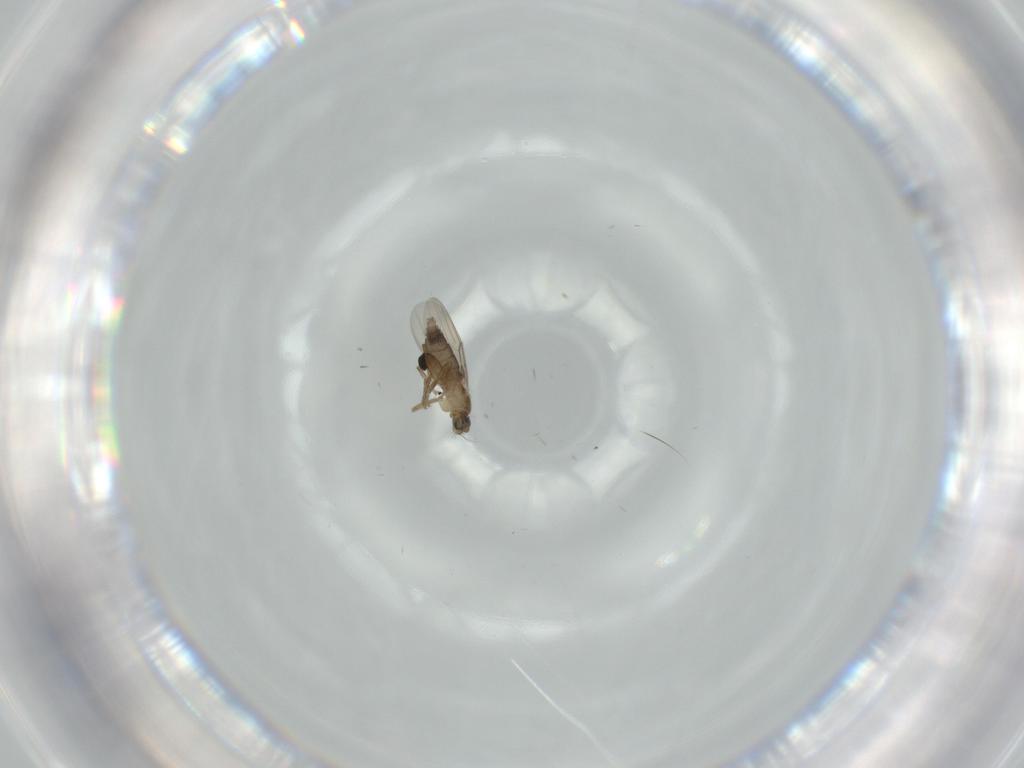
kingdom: Animalia
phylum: Arthropoda
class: Insecta
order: Diptera
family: Phoridae
